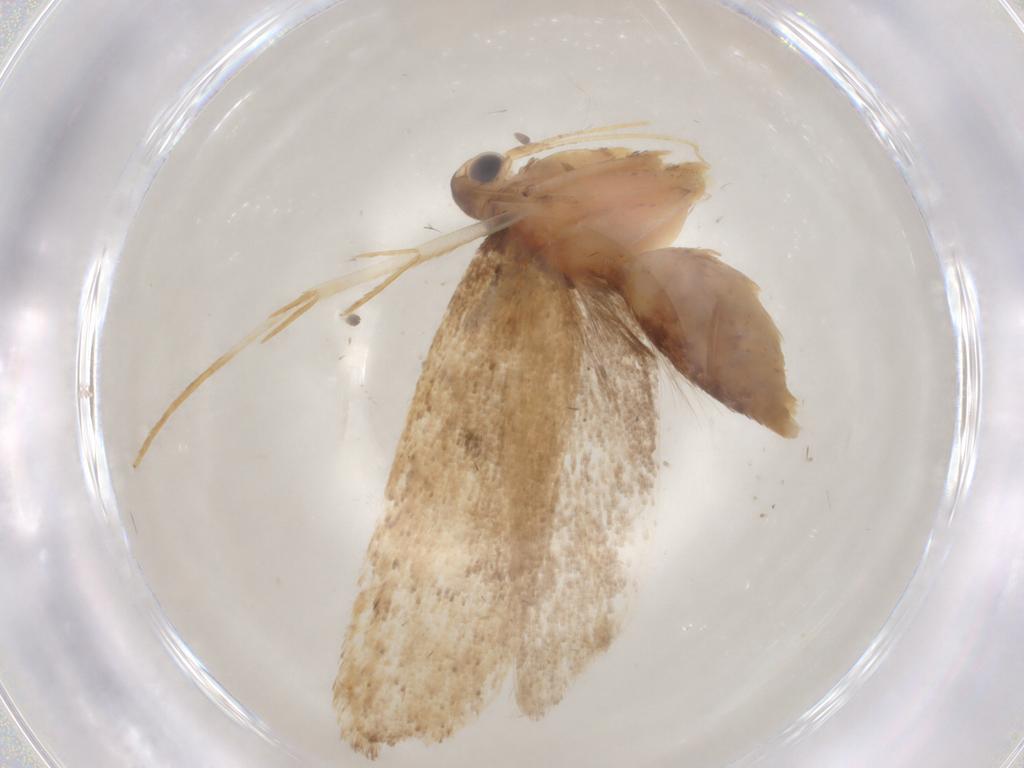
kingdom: Animalia
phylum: Arthropoda
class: Insecta
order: Lepidoptera
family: Lecithoceridae
